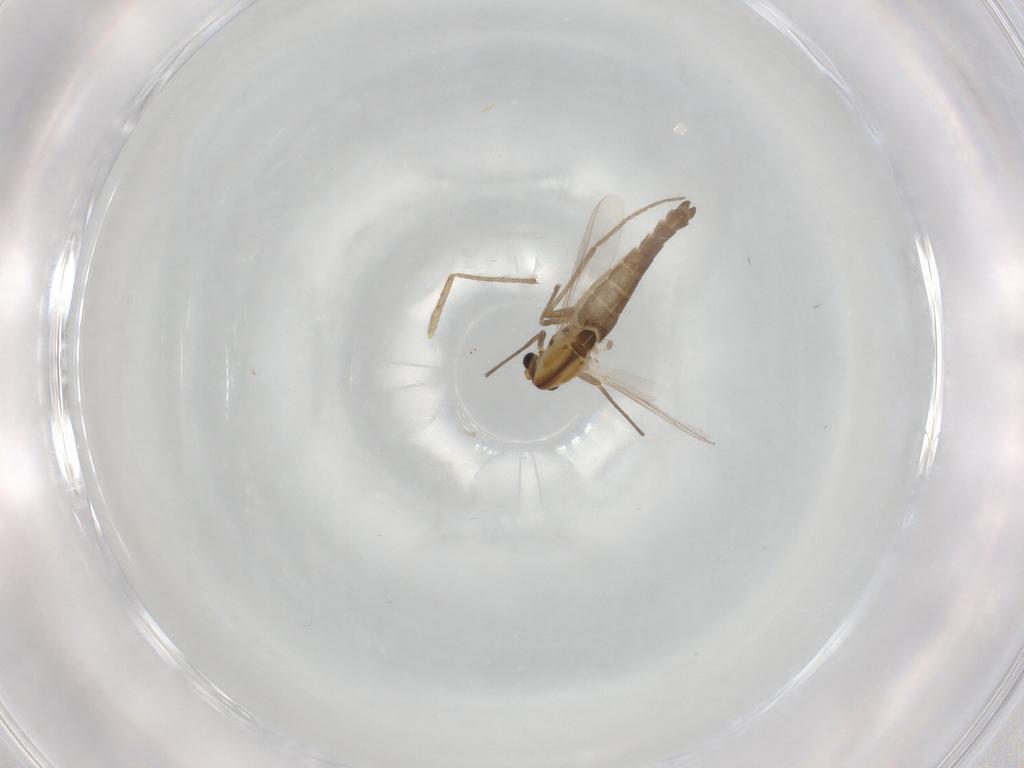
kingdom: Animalia
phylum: Arthropoda
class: Insecta
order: Diptera
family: Chironomidae
